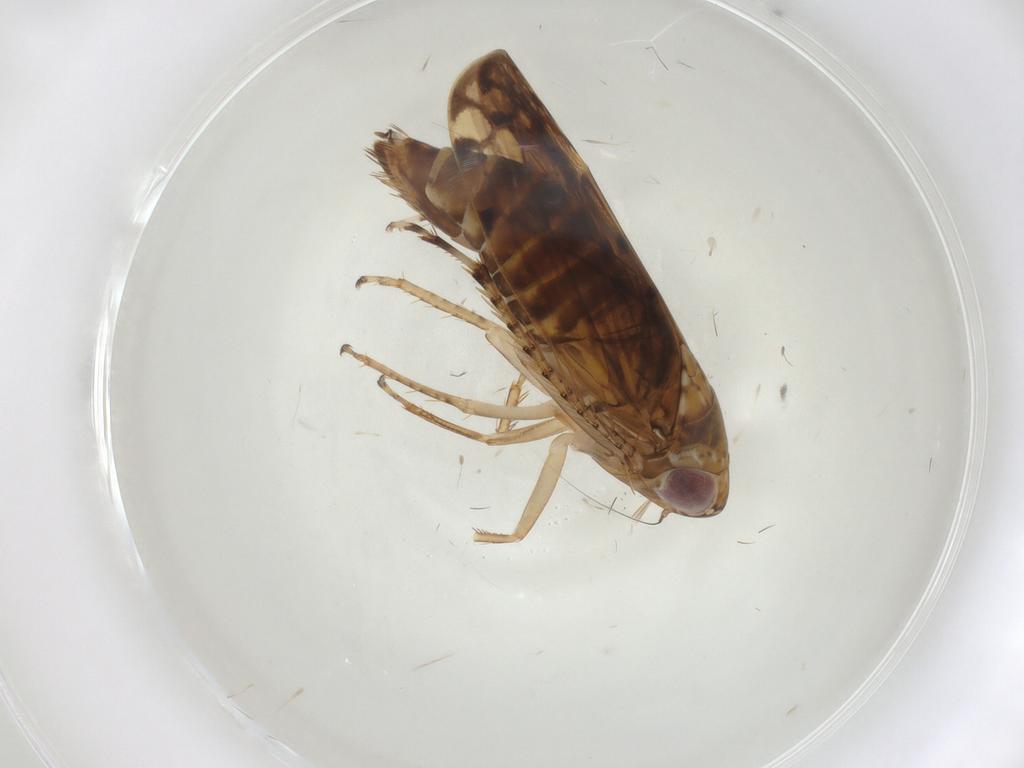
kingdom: Animalia
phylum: Arthropoda
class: Insecta
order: Hemiptera
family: Cicadellidae
